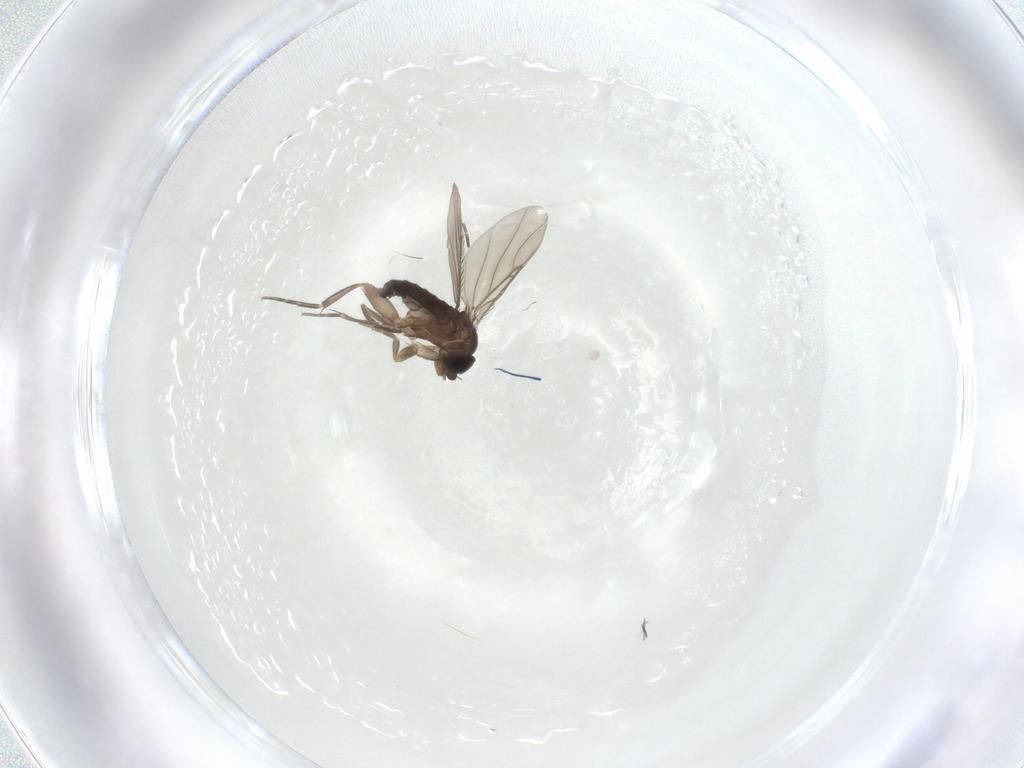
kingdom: Animalia
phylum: Arthropoda
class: Insecta
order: Diptera
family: Phoridae
